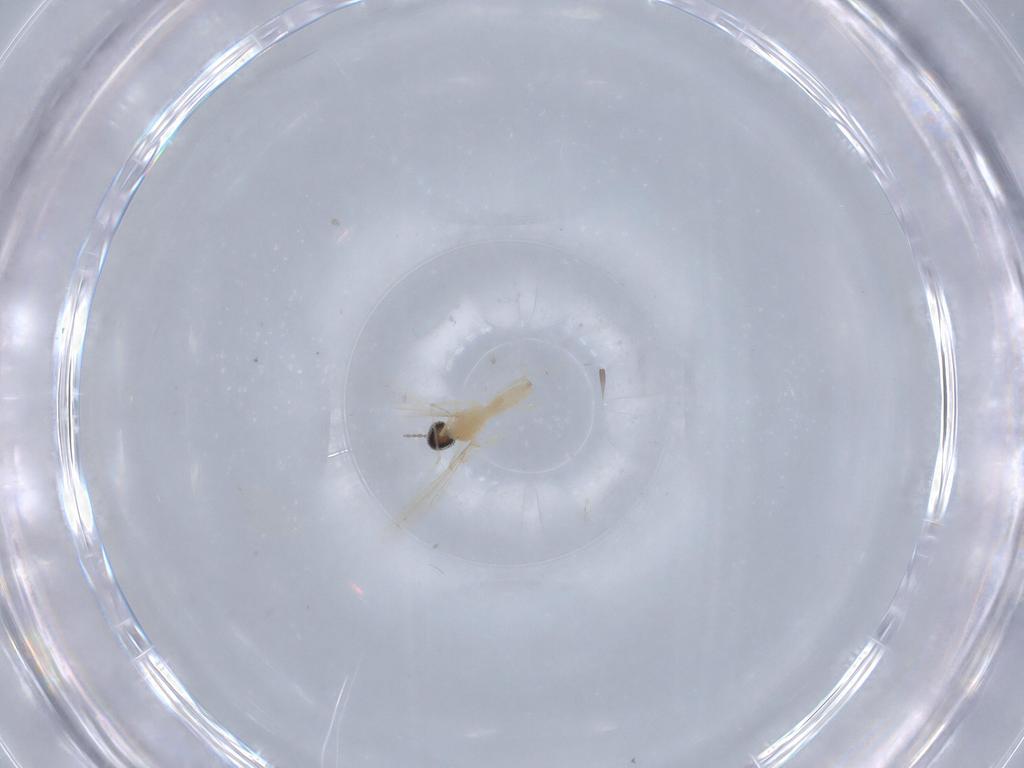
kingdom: Animalia
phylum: Arthropoda
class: Insecta
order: Diptera
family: Cecidomyiidae
